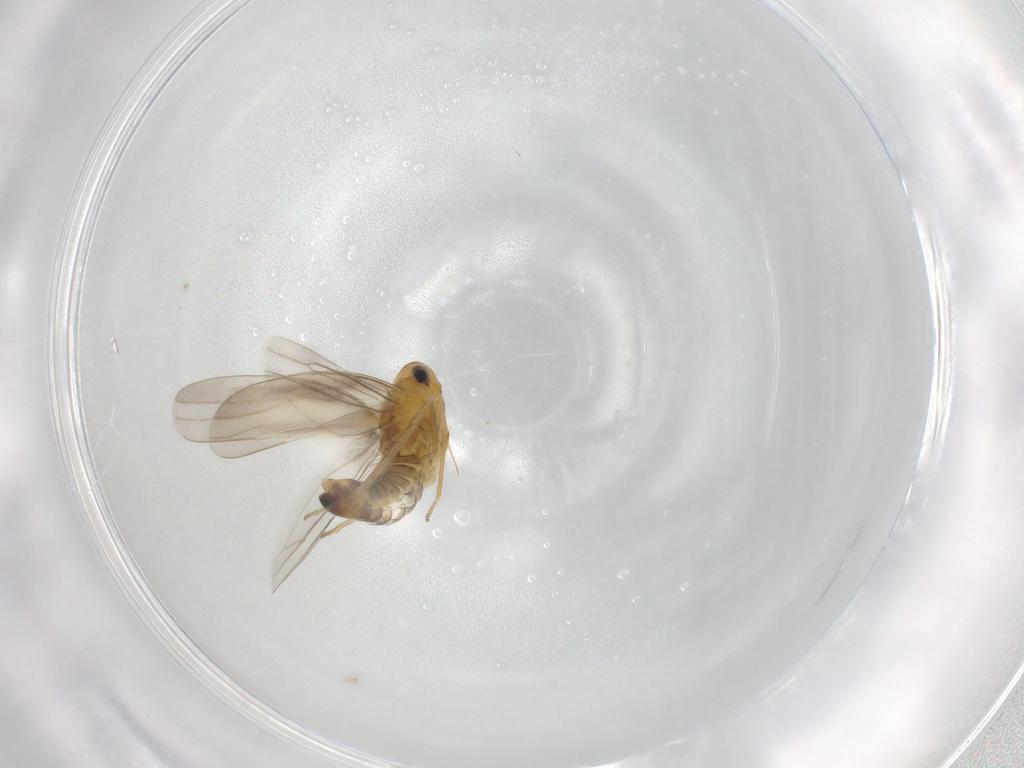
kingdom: Animalia
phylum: Arthropoda
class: Insecta
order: Hemiptera
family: Cicadellidae
